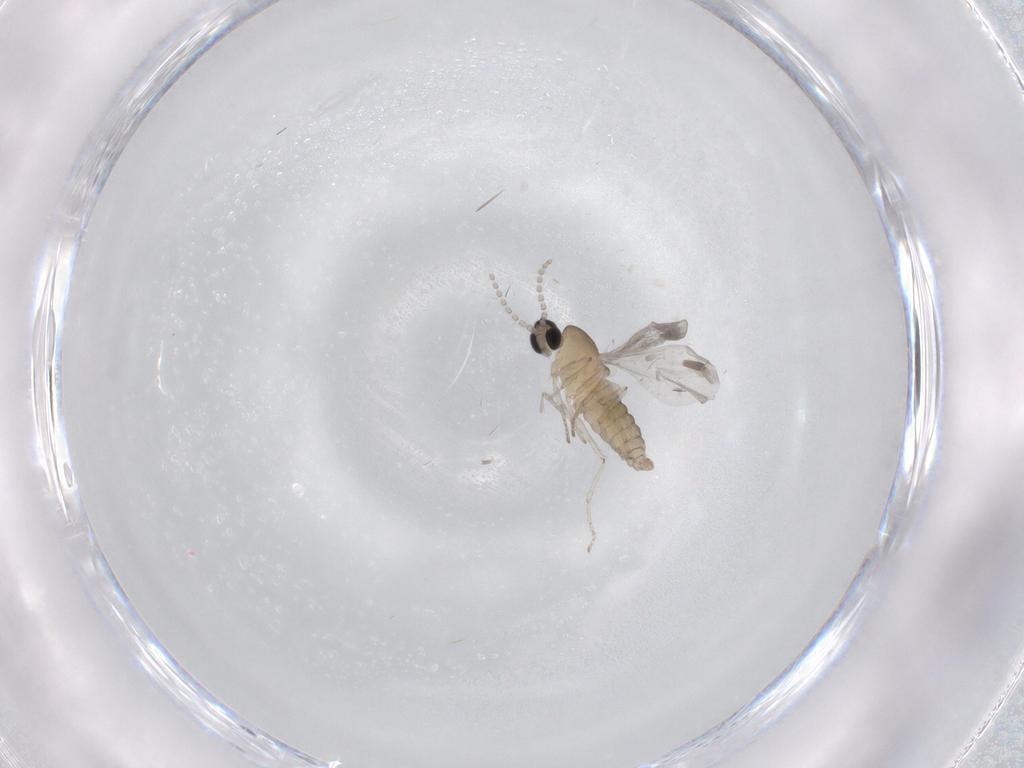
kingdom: Animalia
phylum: Arthropoda
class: Insecta
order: Diptera
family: Cecidomyiidae
